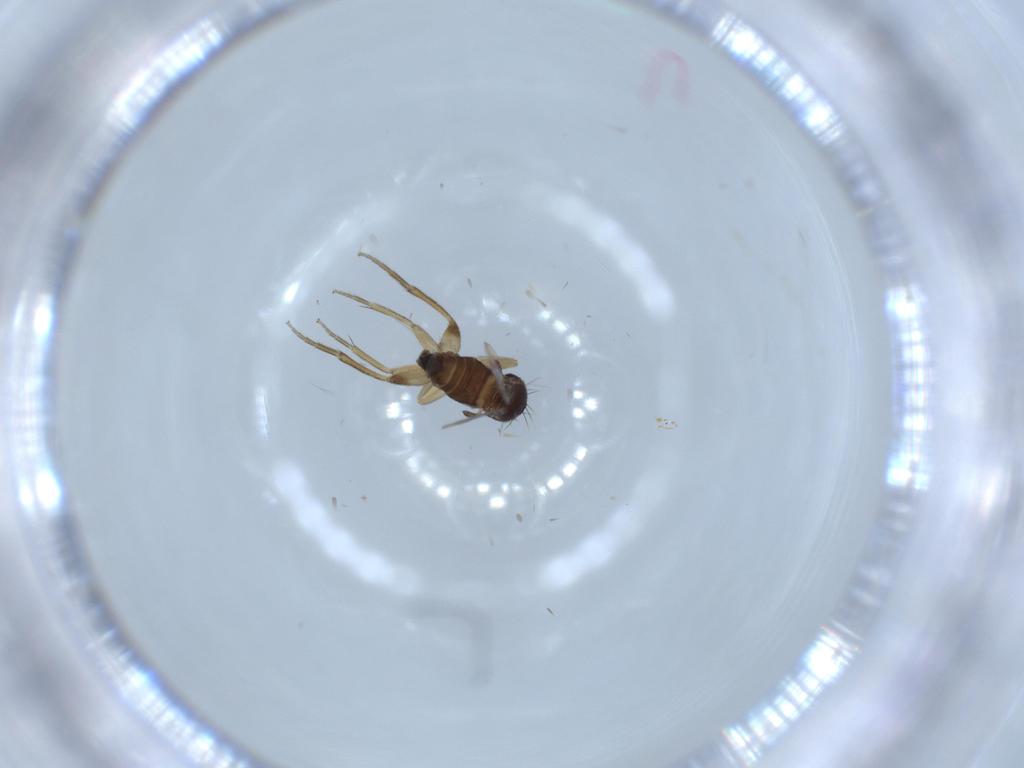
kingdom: Animalia
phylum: Arthropoda
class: Insecta
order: Diptera
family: Phoridae
